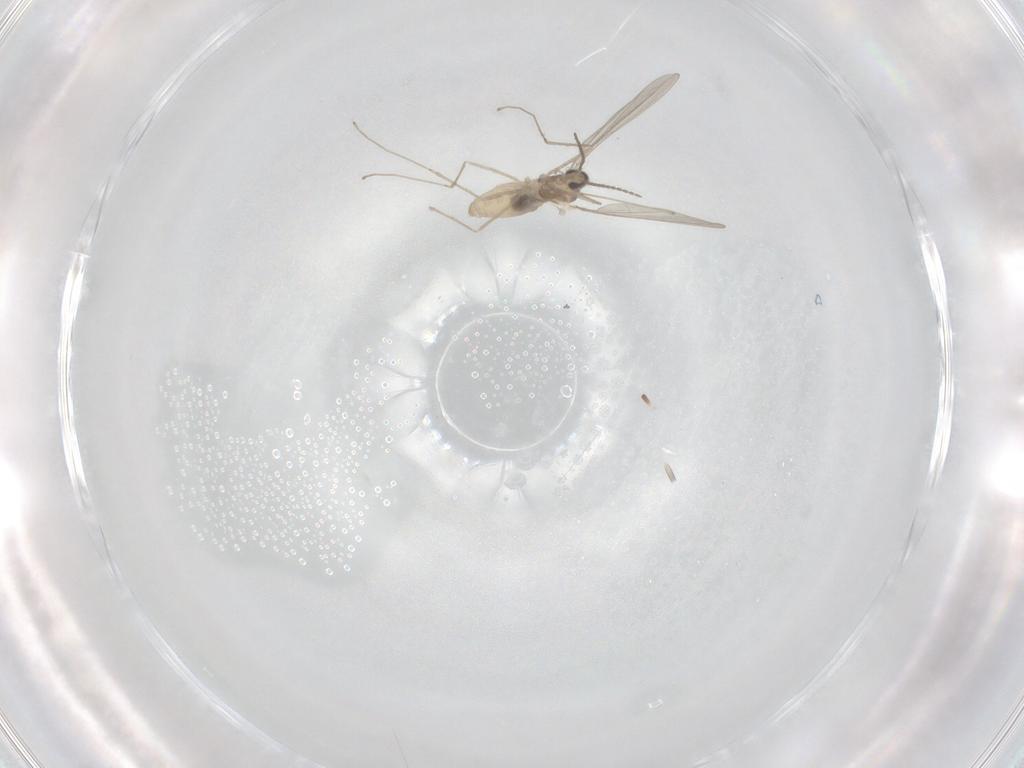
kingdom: Animalia
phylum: Arthropoda
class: Insecta
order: Diptera
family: Cecidomyiidae
